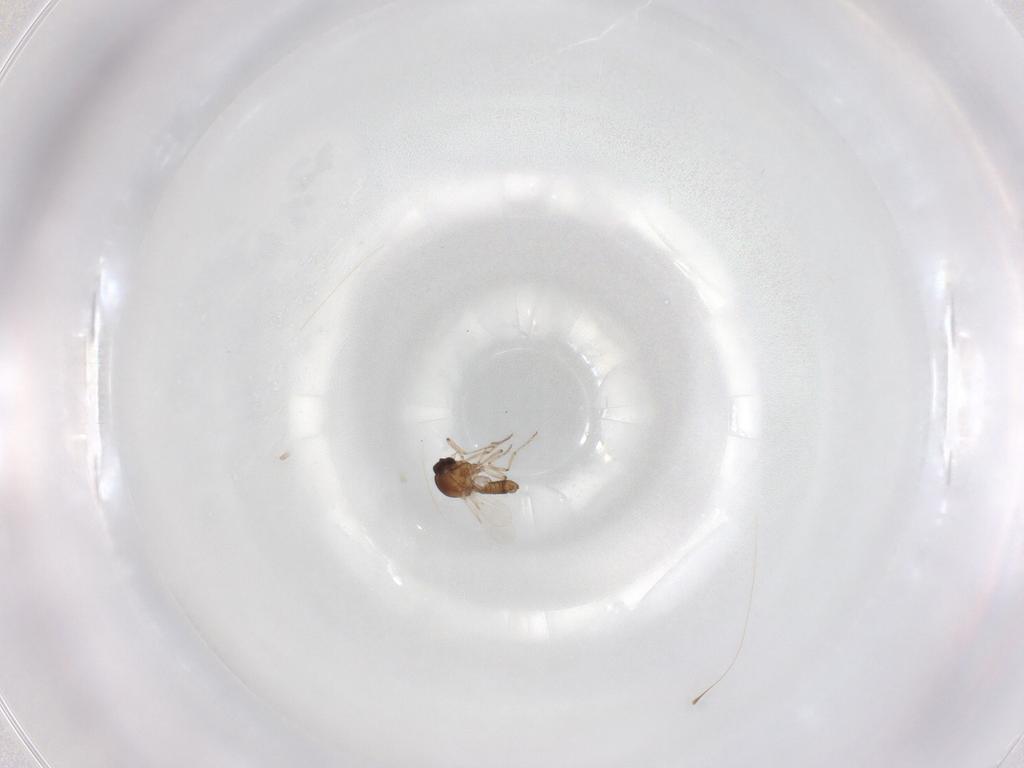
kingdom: Animalia
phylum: Arthropoda
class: Insecta
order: Diptera
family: Ceratopogonidae
